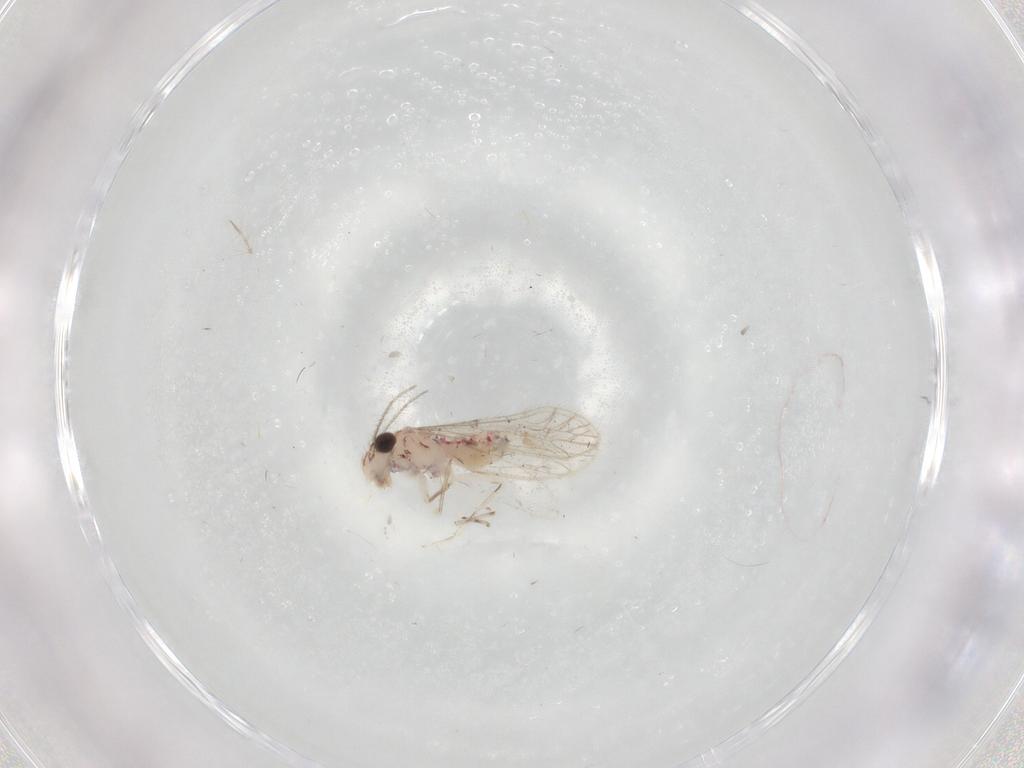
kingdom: Animalia
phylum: Arthropoda
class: Insecta
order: Psocodea
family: Caeciliusidae
